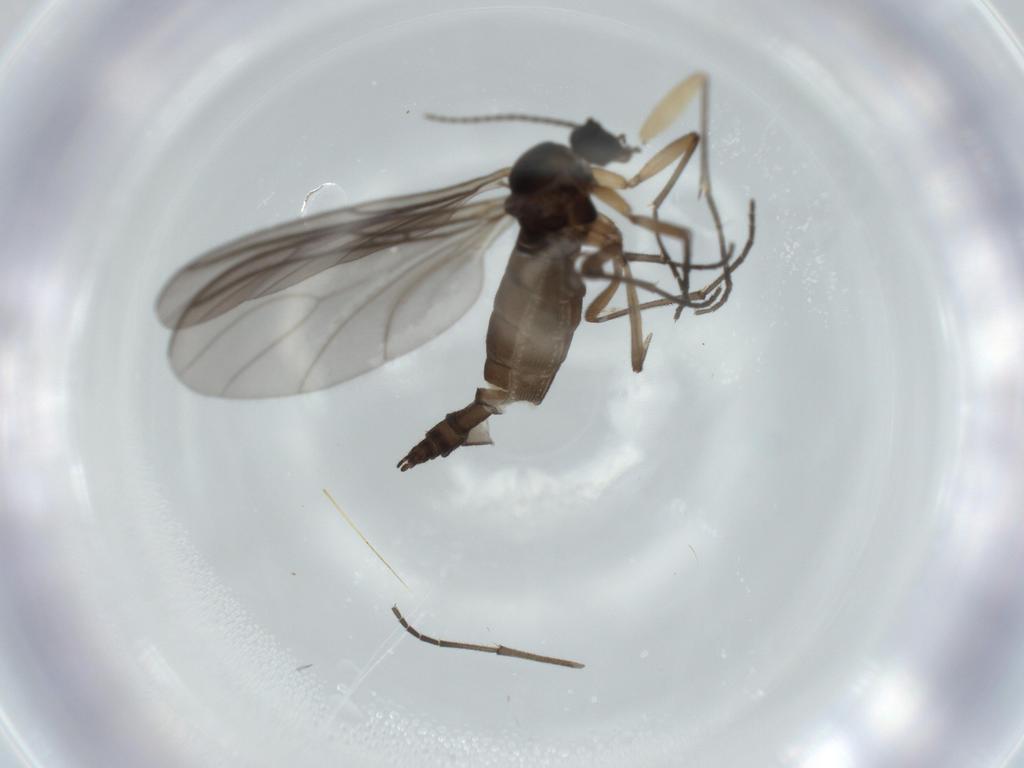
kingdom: Animalia
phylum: Arthropoda
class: Insecta
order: Diptera
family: Sciaridae
